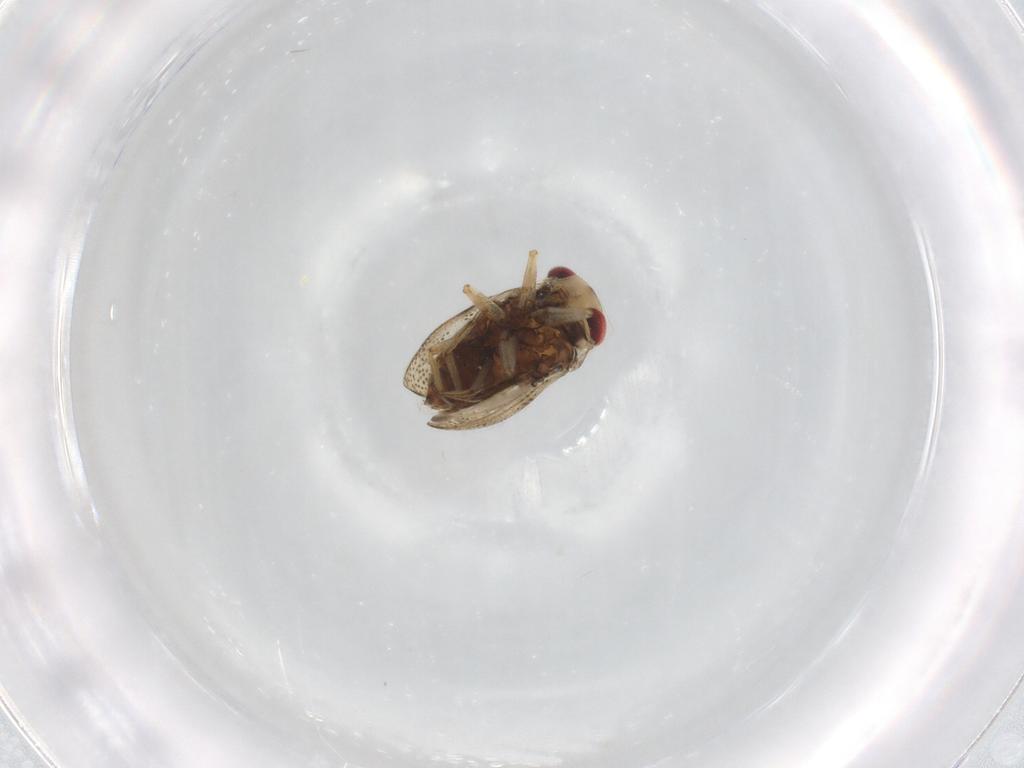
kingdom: Animalia
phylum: Arthropoda
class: Insecta
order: Hemiptera
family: Pleidae
